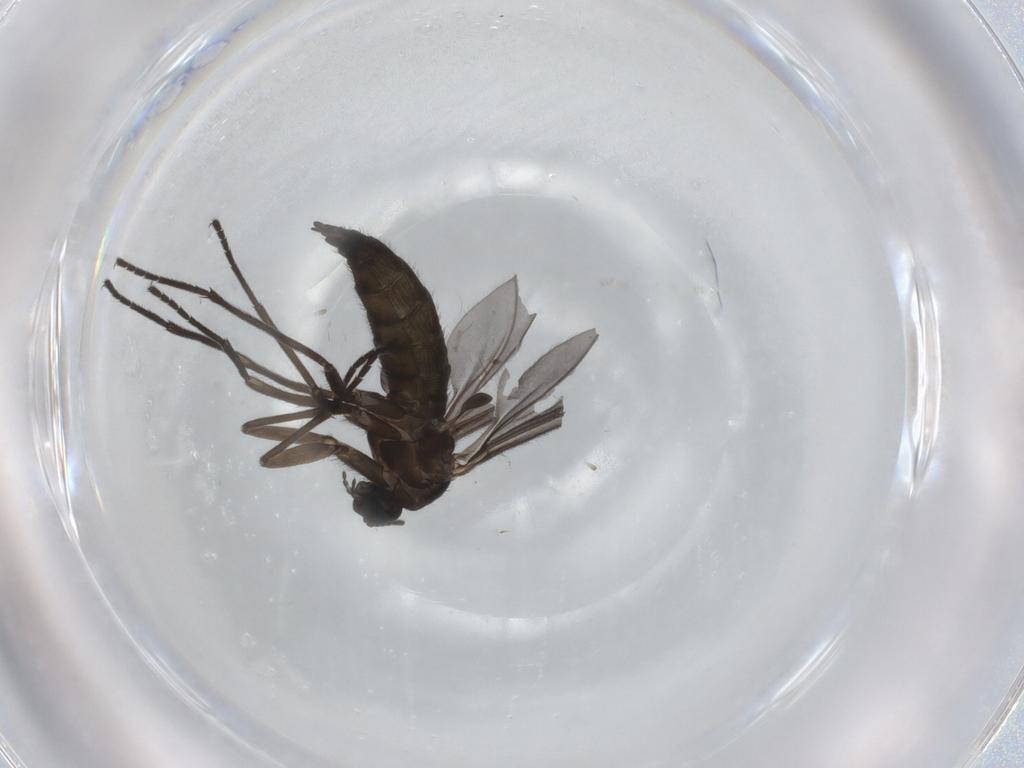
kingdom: Animalia
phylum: Arthropoda
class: Insecta
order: Diptera
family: Sciaridae
